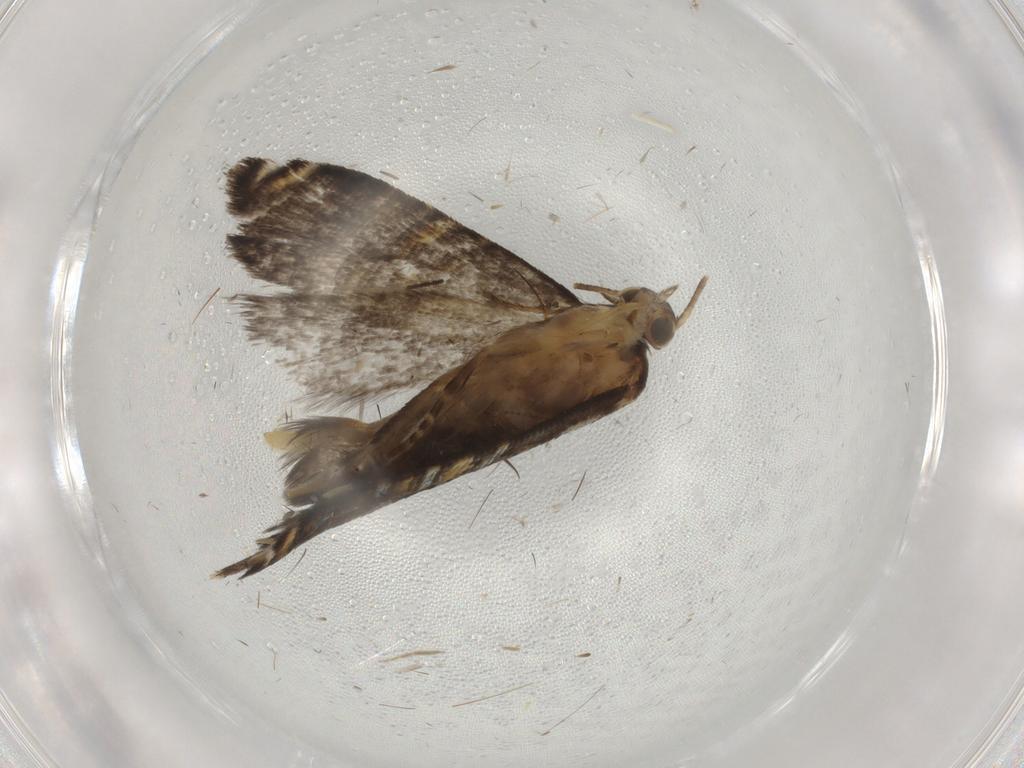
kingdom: Animalia
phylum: Arthropoda
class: Insecta
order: Lepidoptera
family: Glyphipterigidae
